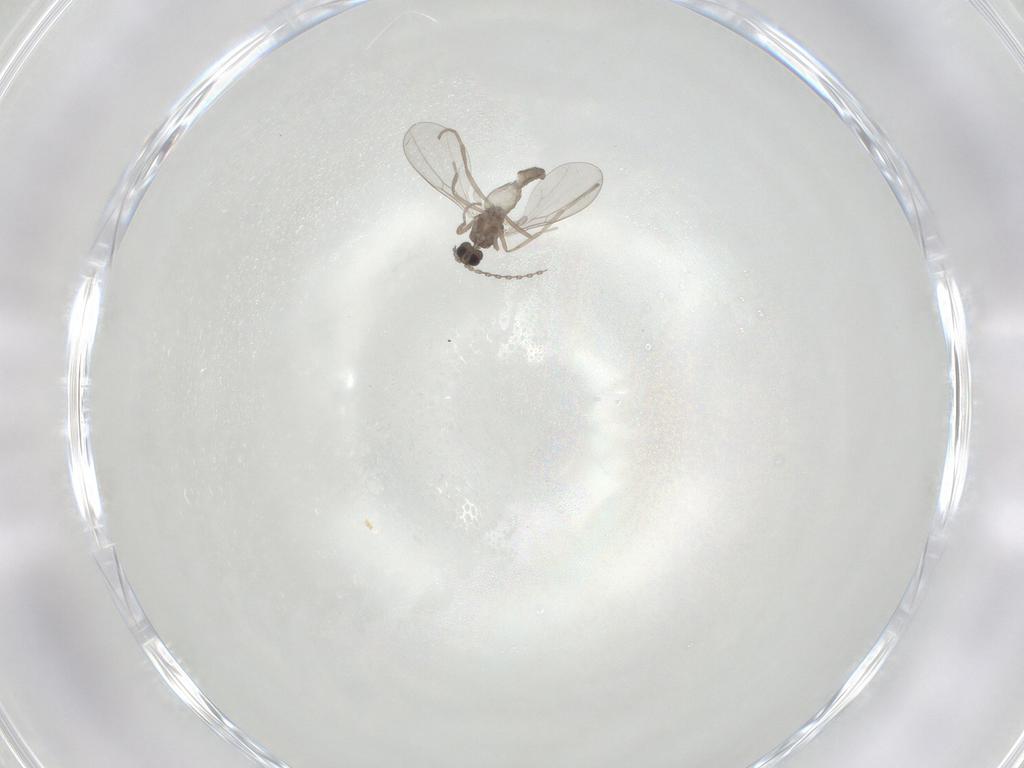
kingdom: Animalia
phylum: Arthropoda
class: Insecta
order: Diptera
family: Cecidomyiidae
